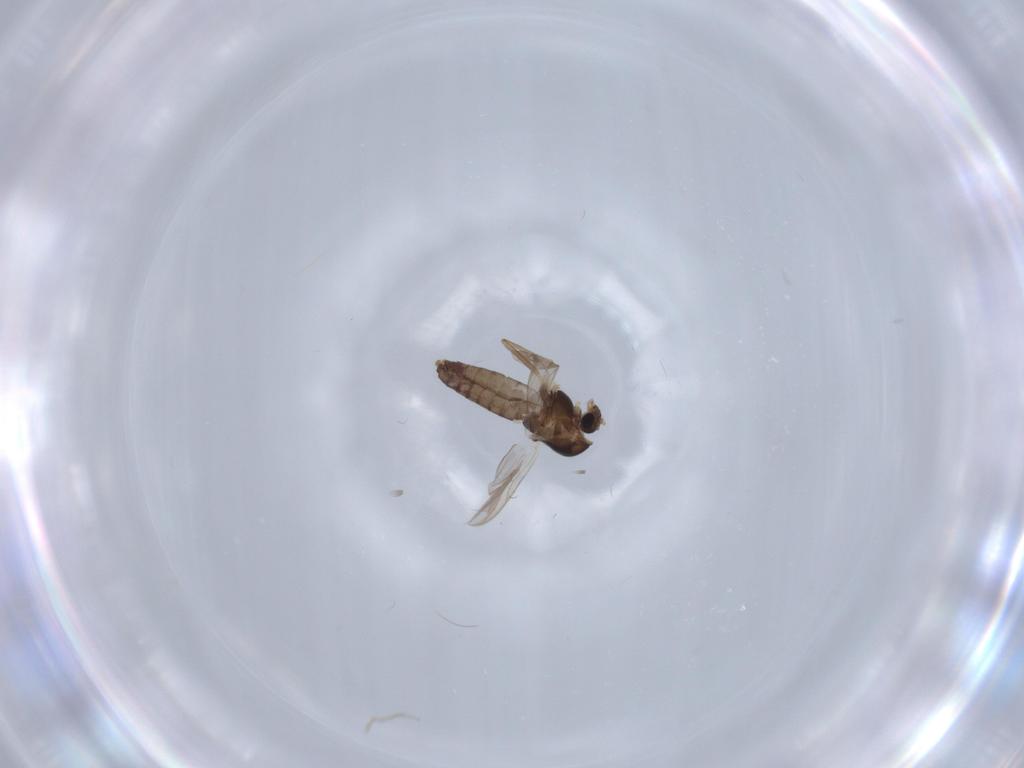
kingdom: Animalia
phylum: Arthropoda
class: Insecta
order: Diptera
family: Chironomidae
